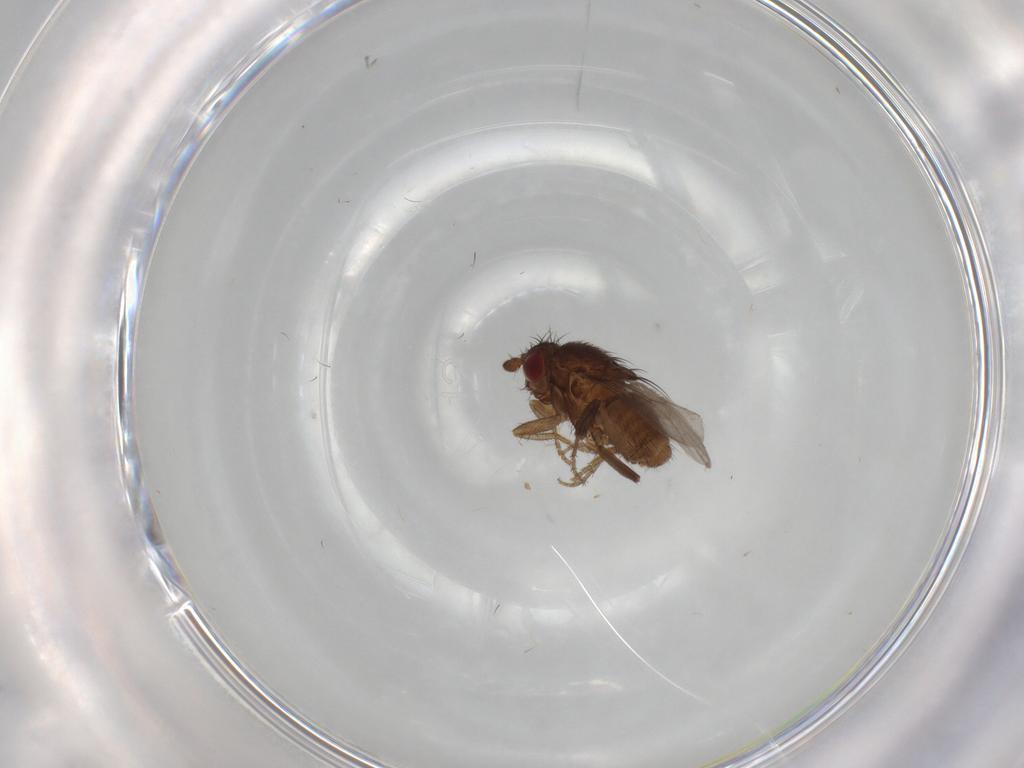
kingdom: Animalia
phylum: Arthropoda
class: Insecta
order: Diptera
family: Sphaeroceridae
